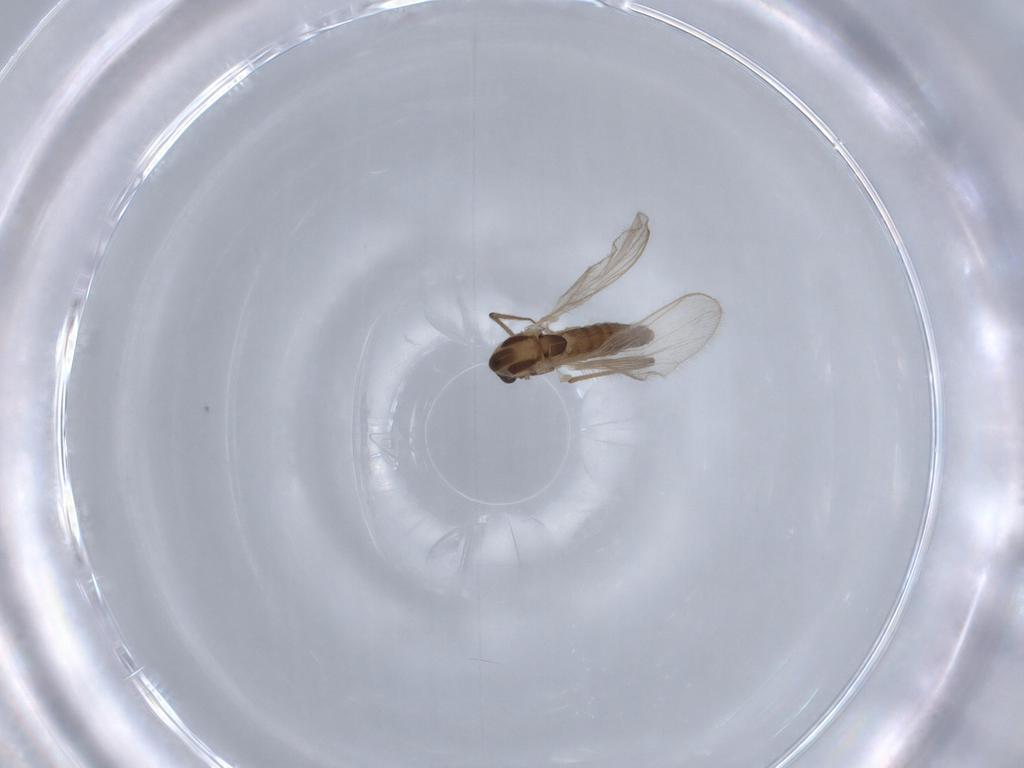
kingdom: Animalia
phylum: Arthropoda
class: Insecta
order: Diptera
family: Chironomidae
